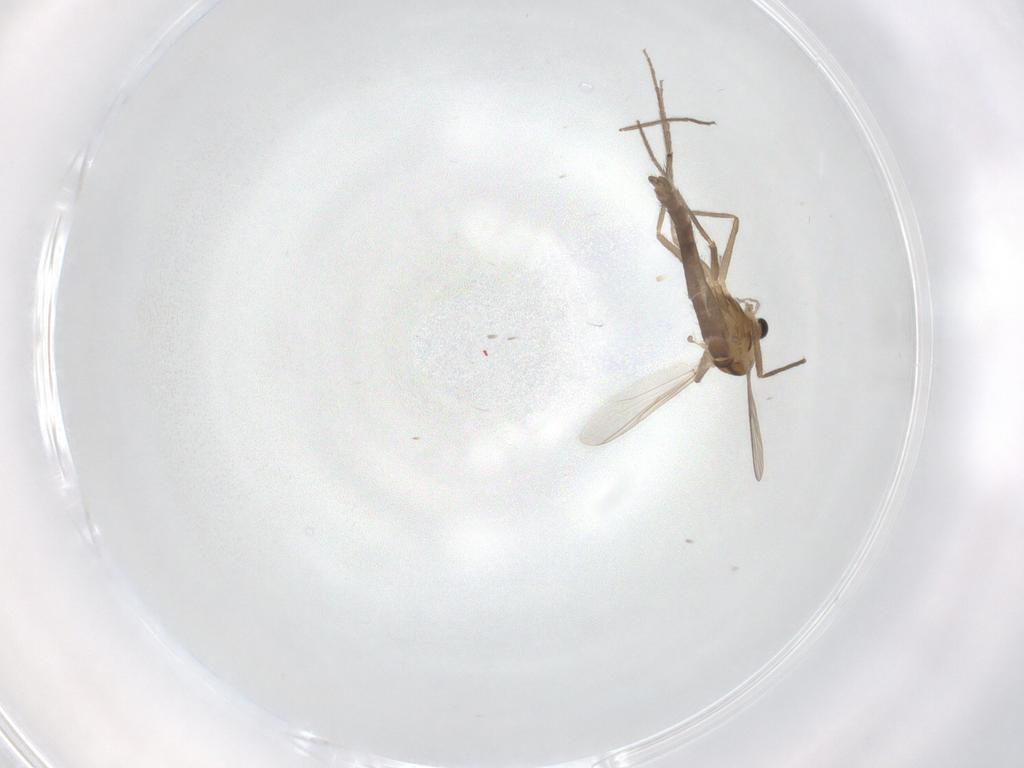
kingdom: Animalia
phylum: Arthropoda
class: Insecta
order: Diptera
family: Chironomidae
